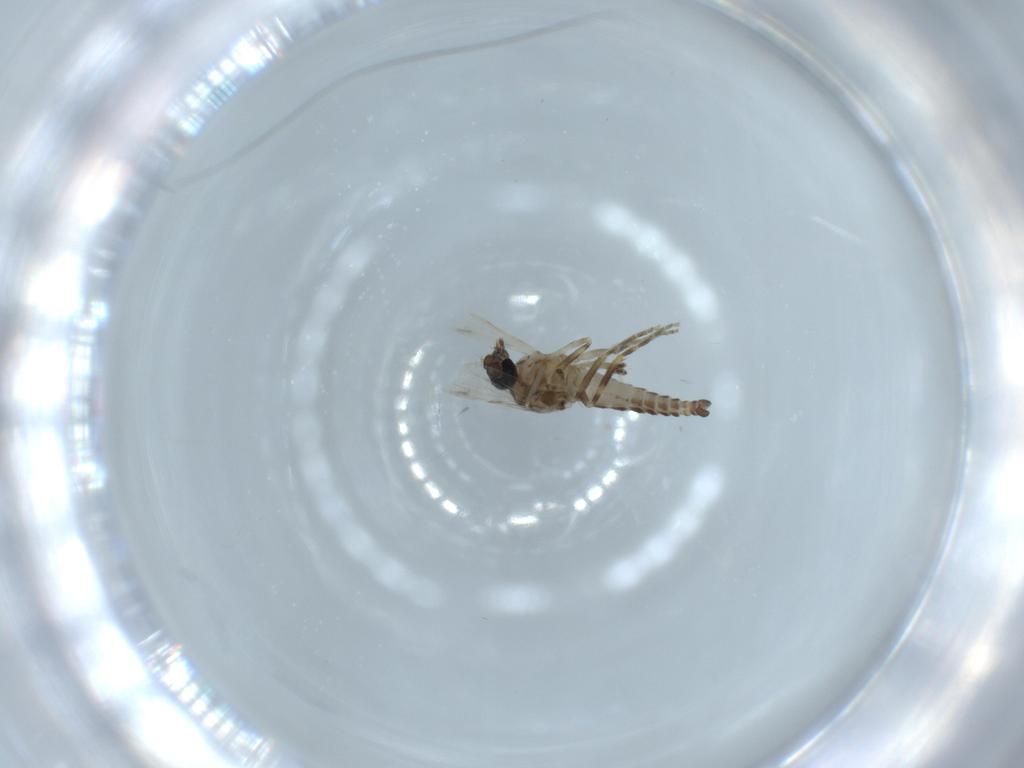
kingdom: Animalia
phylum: Arthropoda
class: Insecta
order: Diptera
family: Ceratopogonidae
